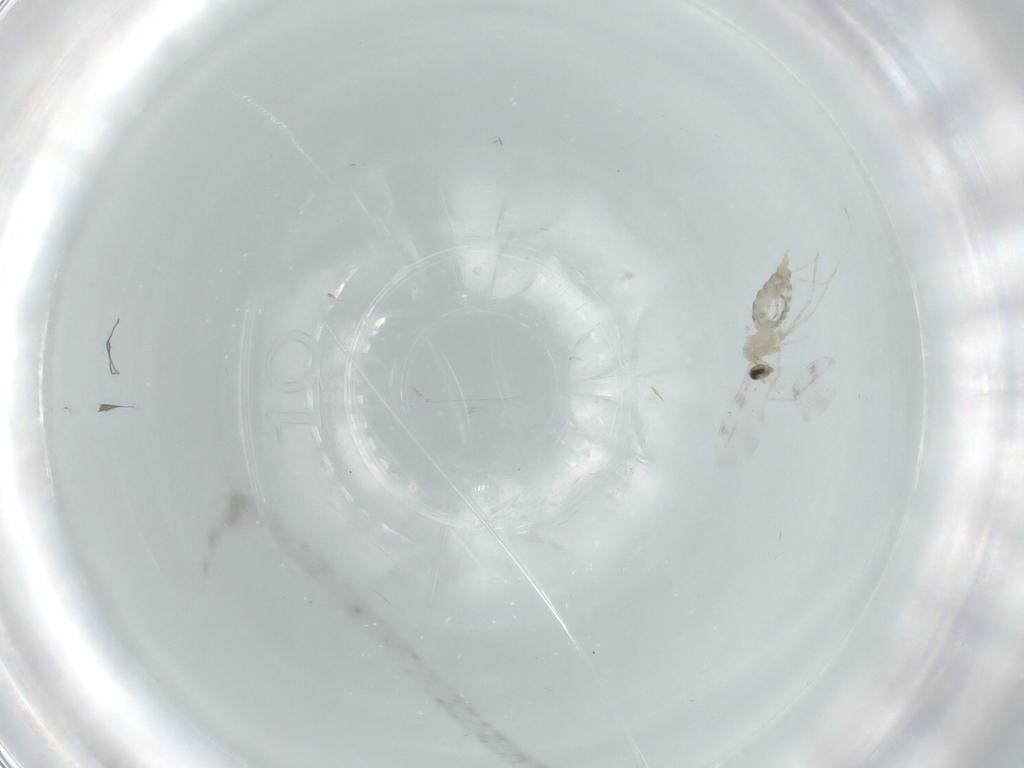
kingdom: Animalia
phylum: Arthropoda
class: Insecta
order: Diptera
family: Cecidomyiidae
